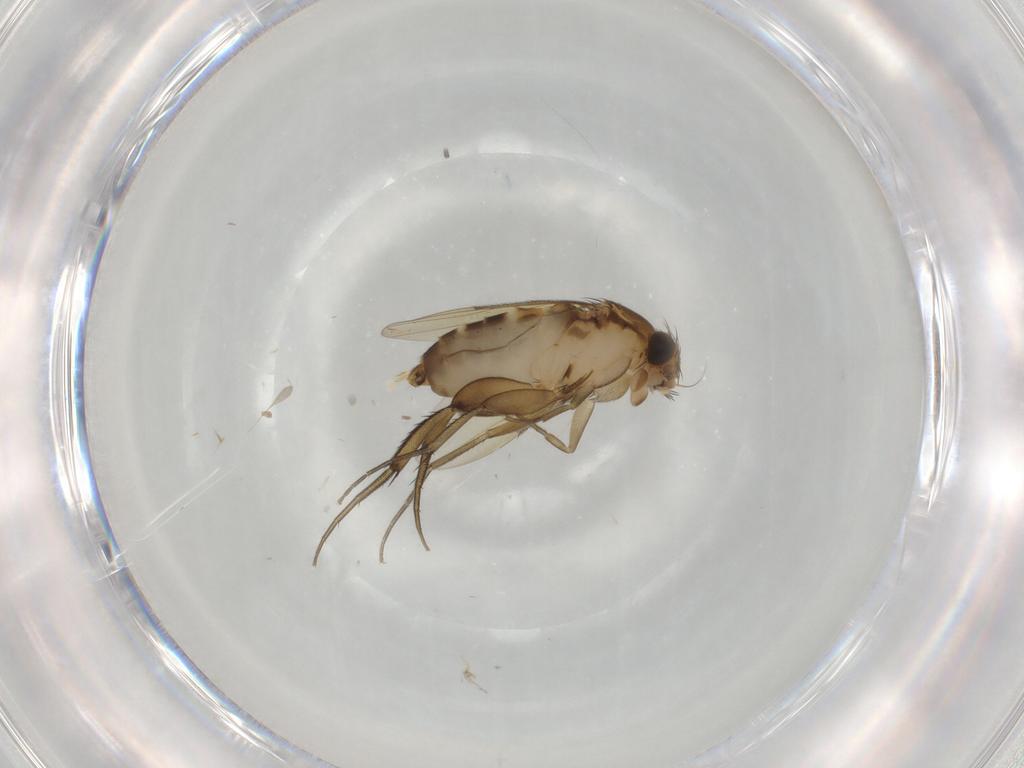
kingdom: Animalia
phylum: Arthropoda
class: Insecta
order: Diptera
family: Phoridae
